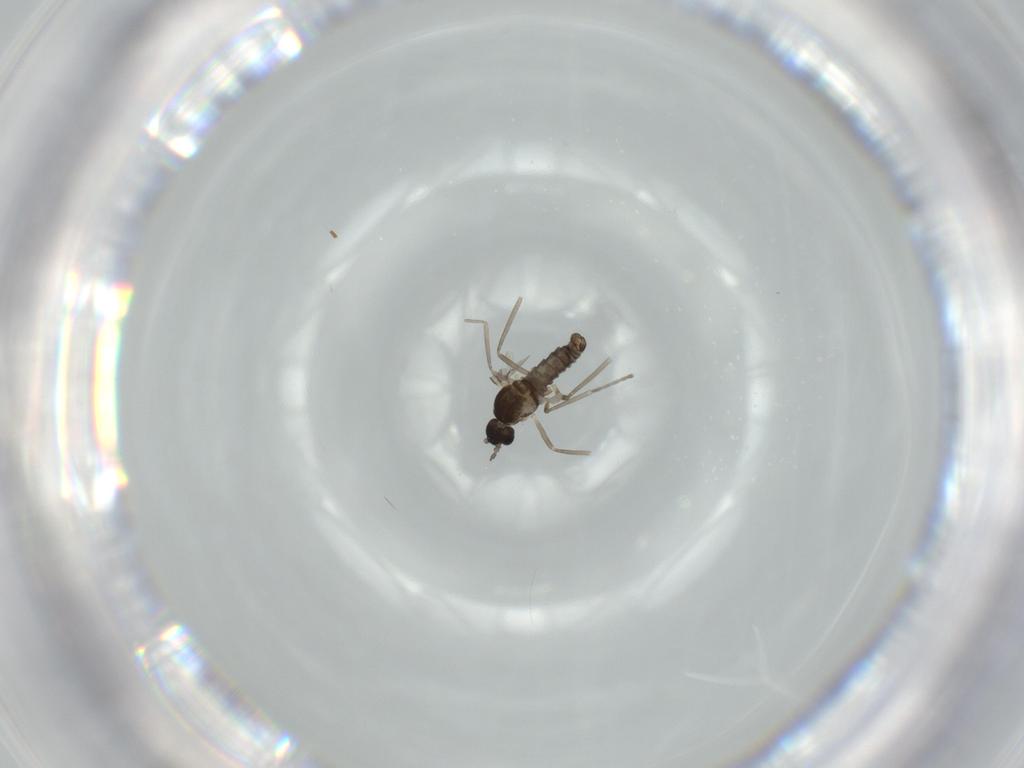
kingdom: Animalia
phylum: Arthropoda
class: Insecta
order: Diptera
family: Cecidomyiidae
